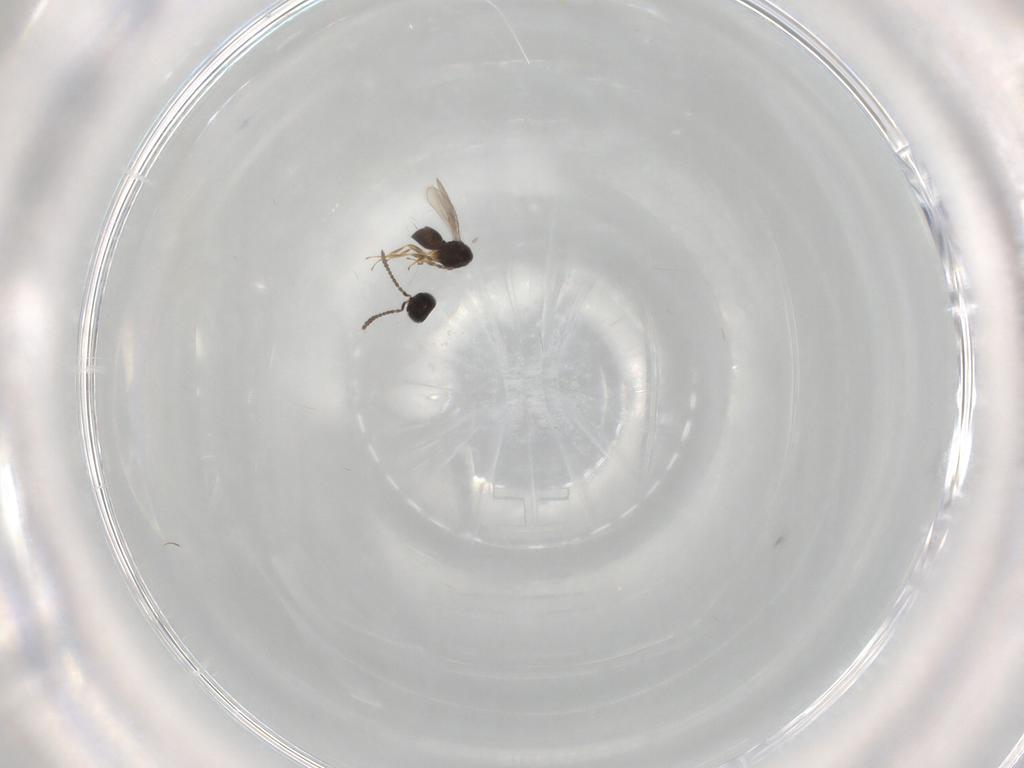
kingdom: Animalia
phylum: Arthropoda
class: Insecta
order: Hymenoptera
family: Scelionidae
